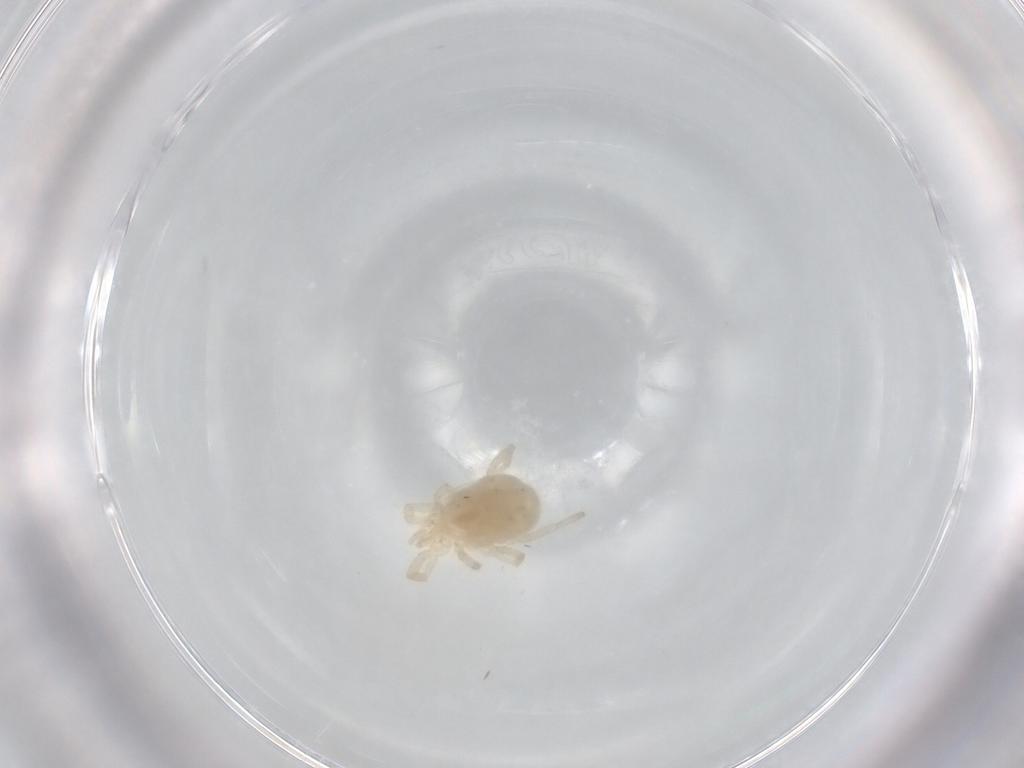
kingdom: Animalia
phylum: Arthropoda
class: Arachnida
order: Trombidiformes
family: Erythraeidae
